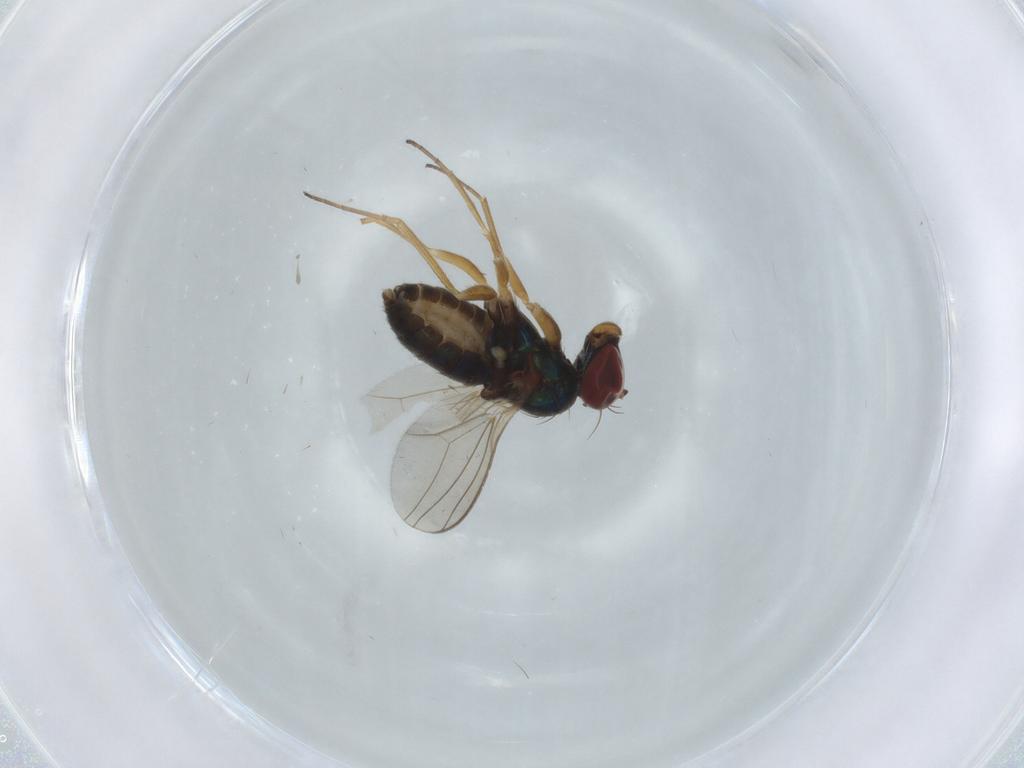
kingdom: Animalia
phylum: Arthropoda
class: Insecta
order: Diptera
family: Dolichopodidae
